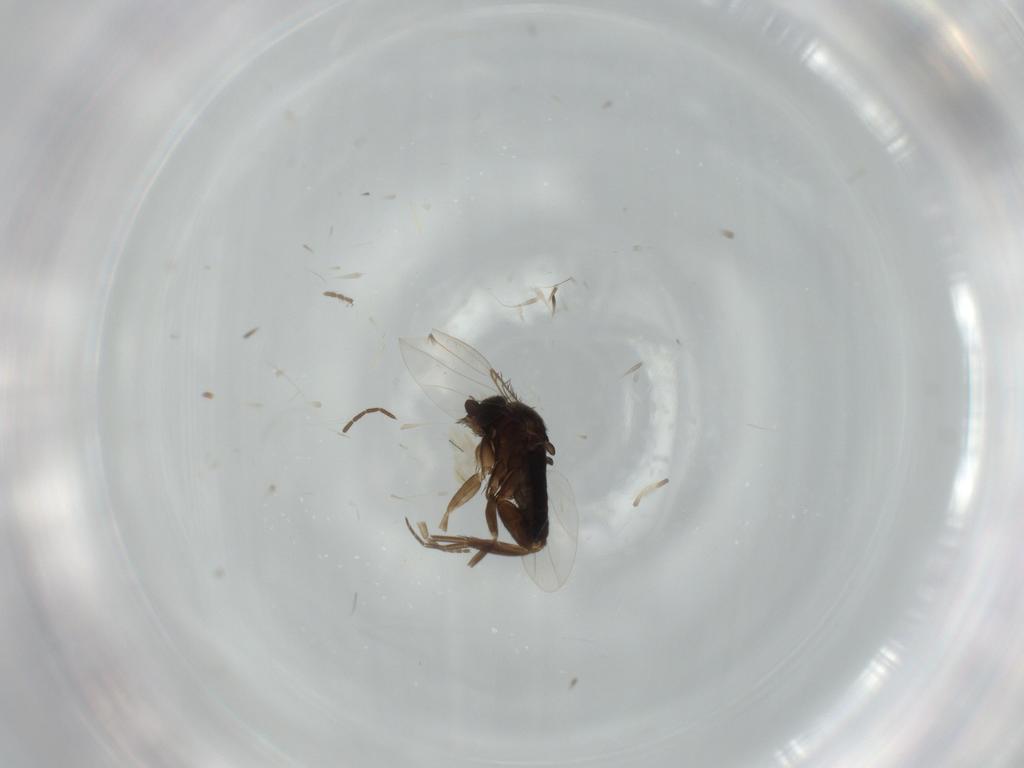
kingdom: Animalia
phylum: Arthropoda
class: Insecta
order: Diptera
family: Phoridae
